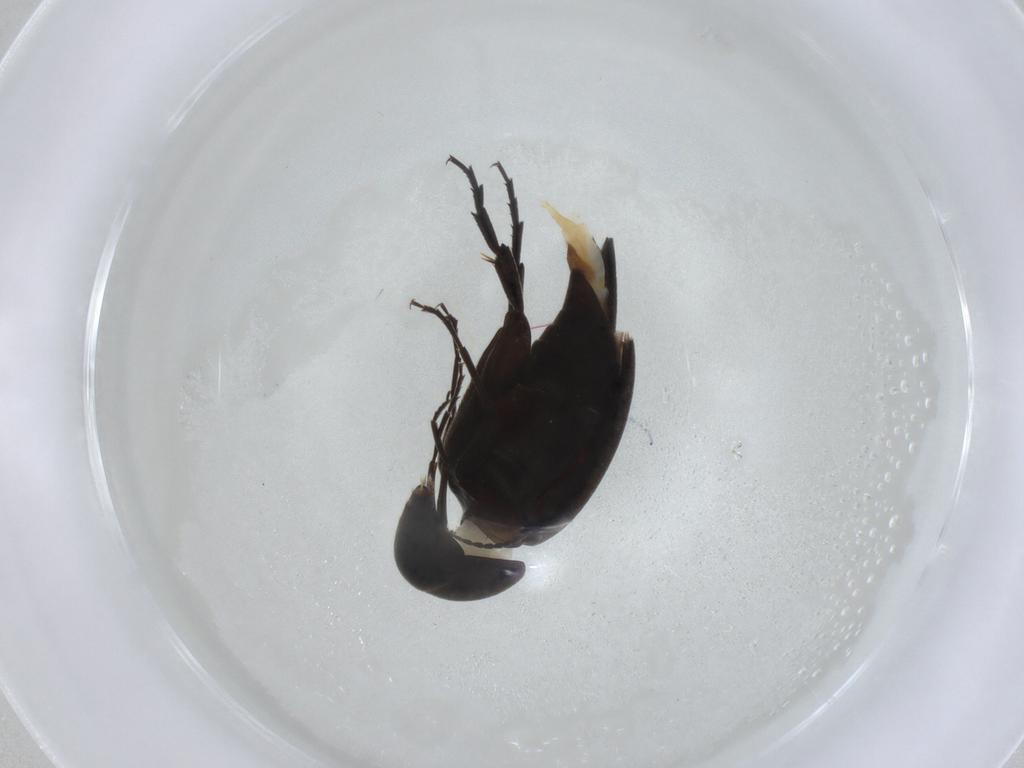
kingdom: Animalia
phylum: Arthropoda
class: Insecta
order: Coleoptera
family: Mordellidae
